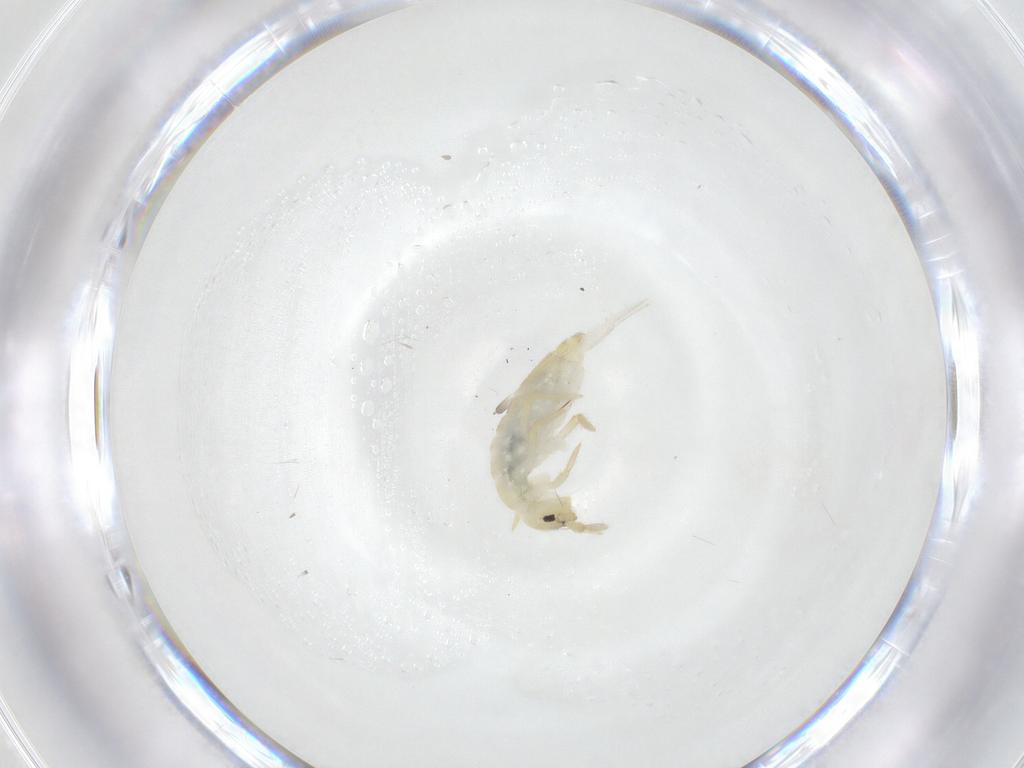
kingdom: Animalia
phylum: Arthropoda
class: Collembola
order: Entomobryomorpha
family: Entomobryidae
